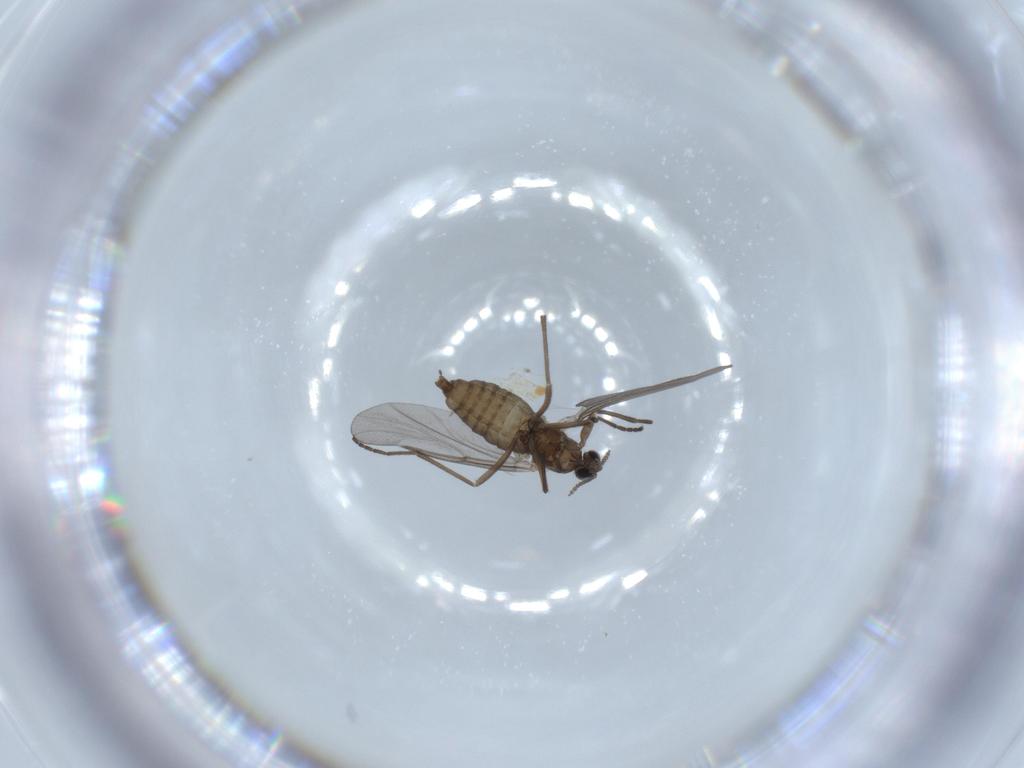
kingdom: Animalia
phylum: Arthropoda
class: Insecta
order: Diptera
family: Cecidomyiidae
